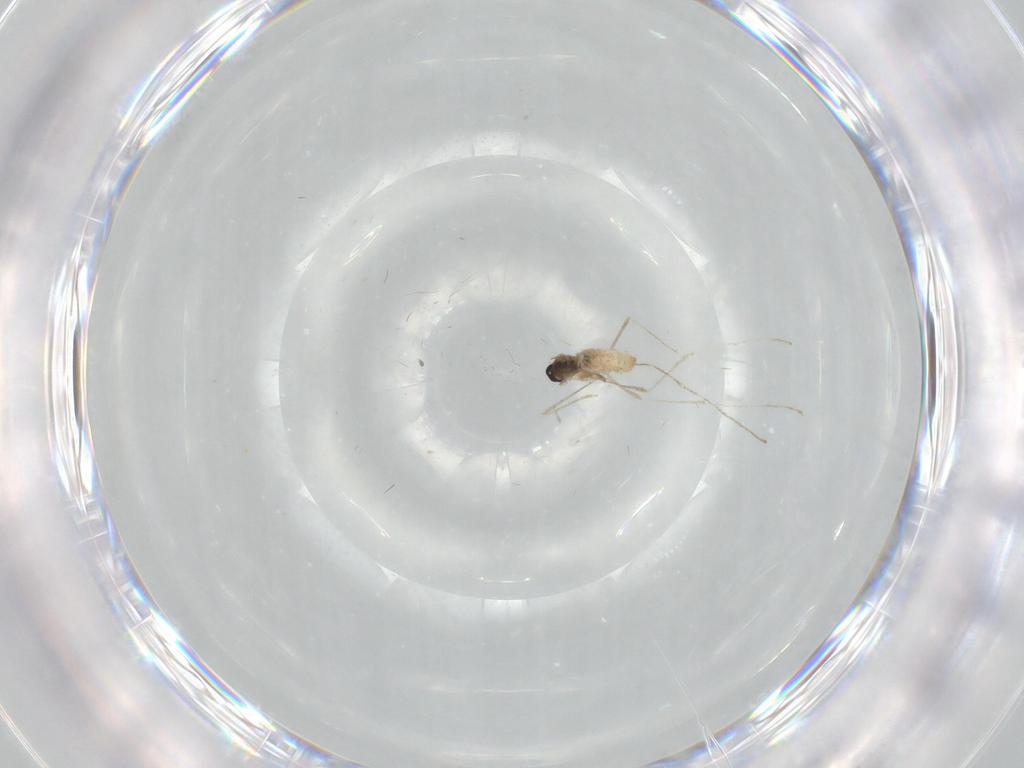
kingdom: Animalia
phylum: Arthropoda
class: Insecta
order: Diptera
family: Cecidomyiidae
